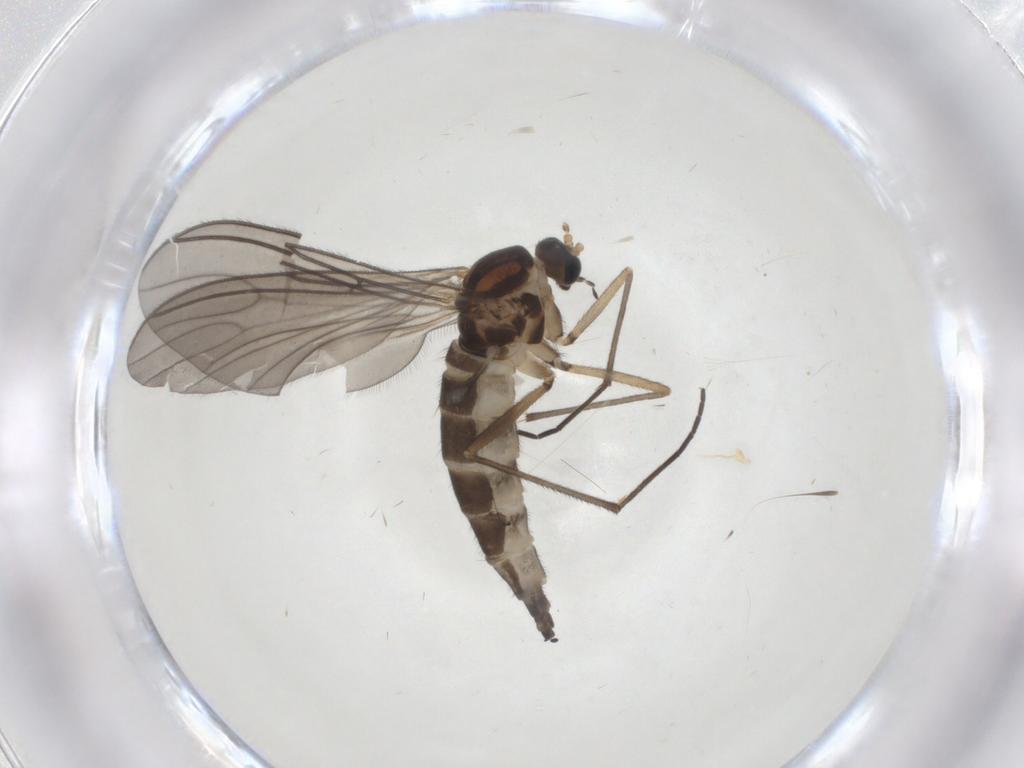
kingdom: Animalia
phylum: Arthropoda
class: Insecta
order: Diptera
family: Sciaridae
